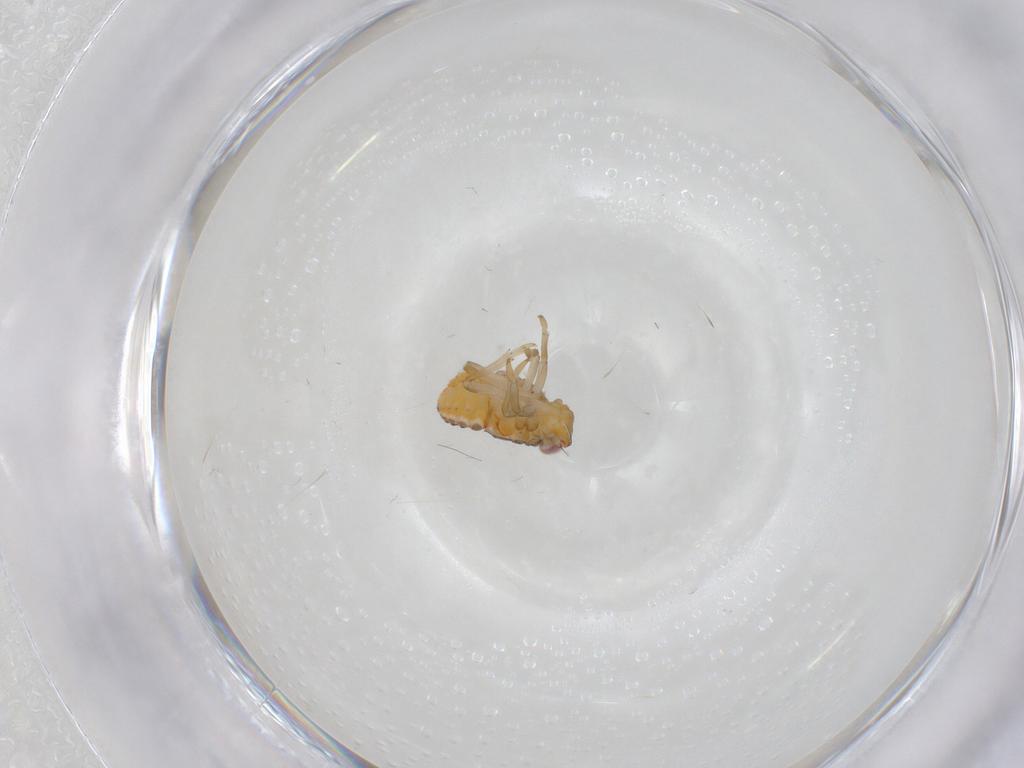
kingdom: Animalia
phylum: Arthropoda
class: Insecta
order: Hemiptera
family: Issidae
